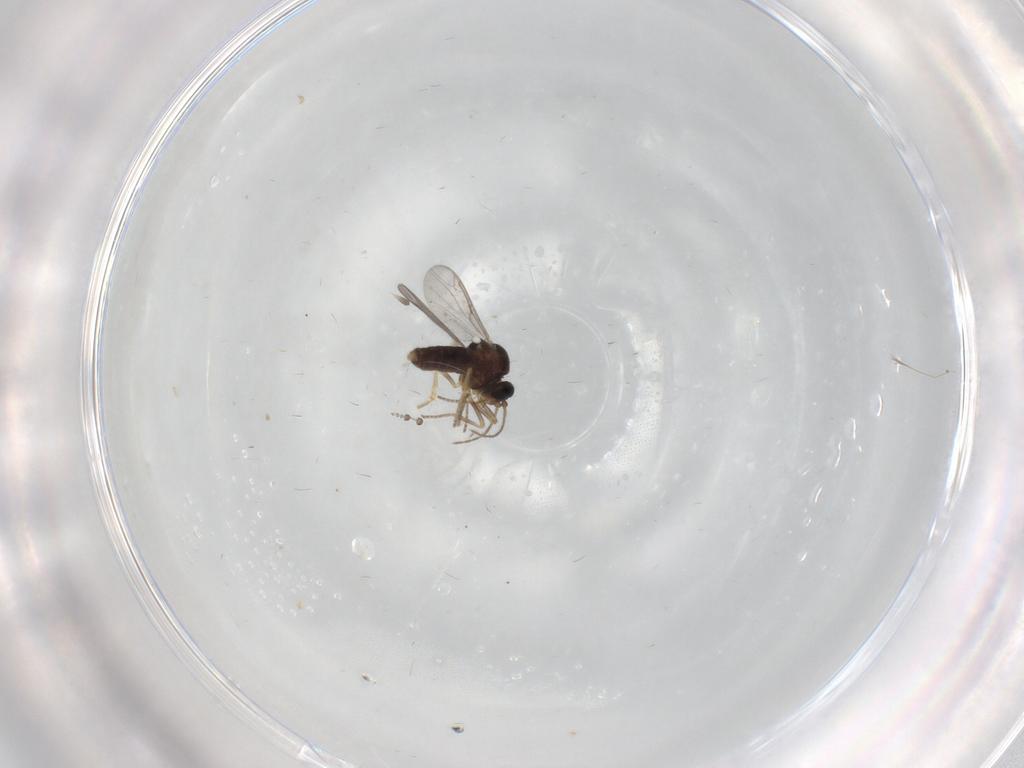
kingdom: Animalia
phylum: Arthropoda
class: Insecta
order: Diptera
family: Ceratopogonidae
